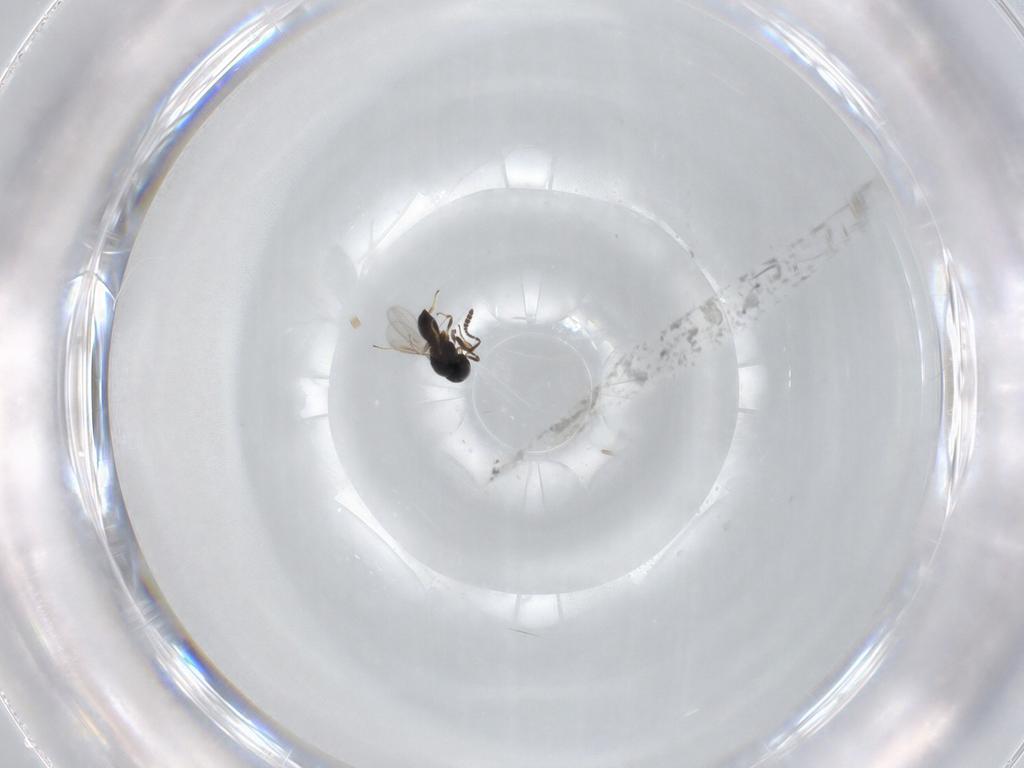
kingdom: Animalia
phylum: Arthropoda
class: Insecta
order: Hymenoptera
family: Scelionidae
